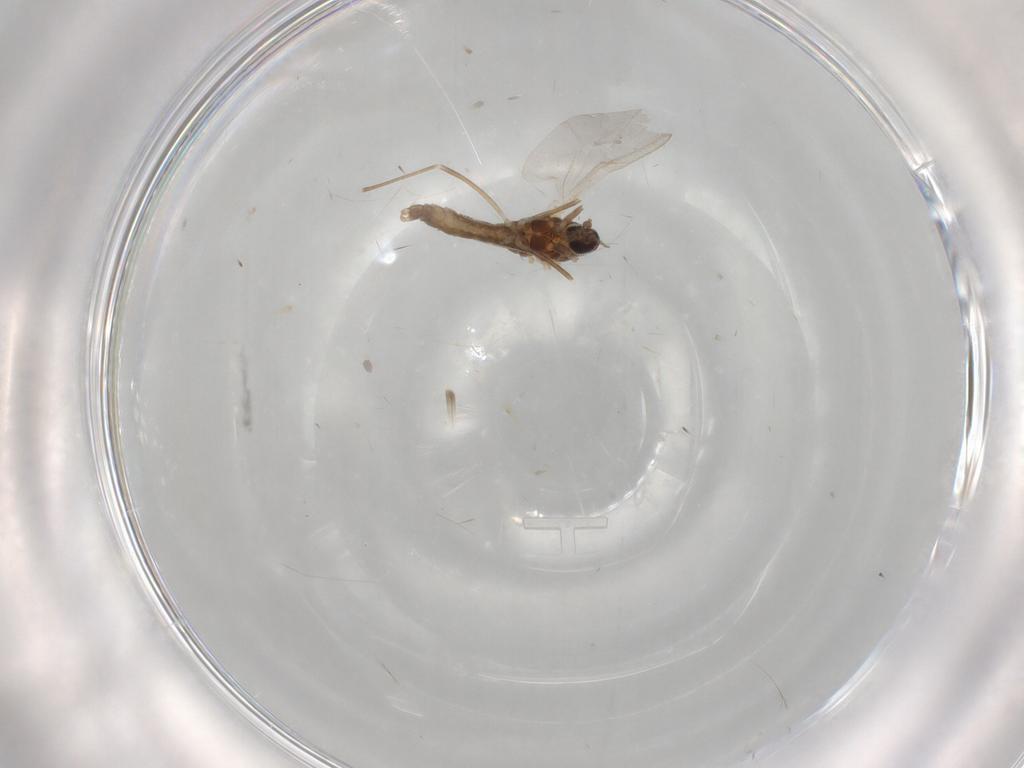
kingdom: Animalia
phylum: Arthropoda
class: Insecta
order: Diptera
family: Cecidomyiidae
